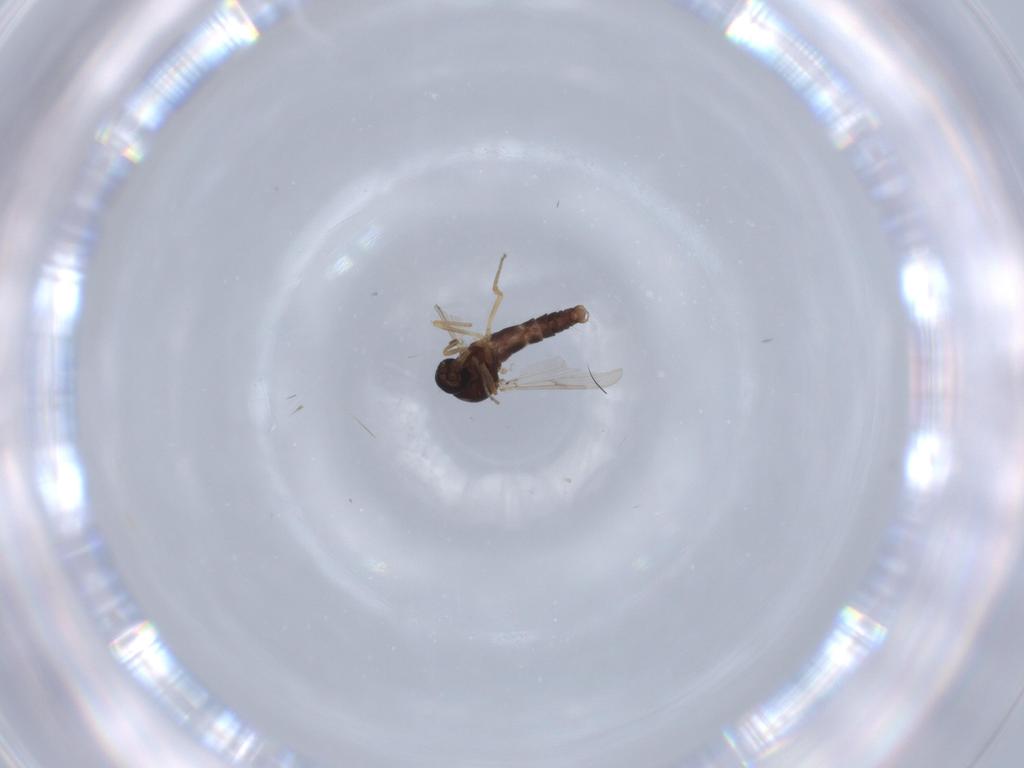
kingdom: Animalia
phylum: Arthropoda
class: Insecta
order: Diptera
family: Ceratopogonidae
